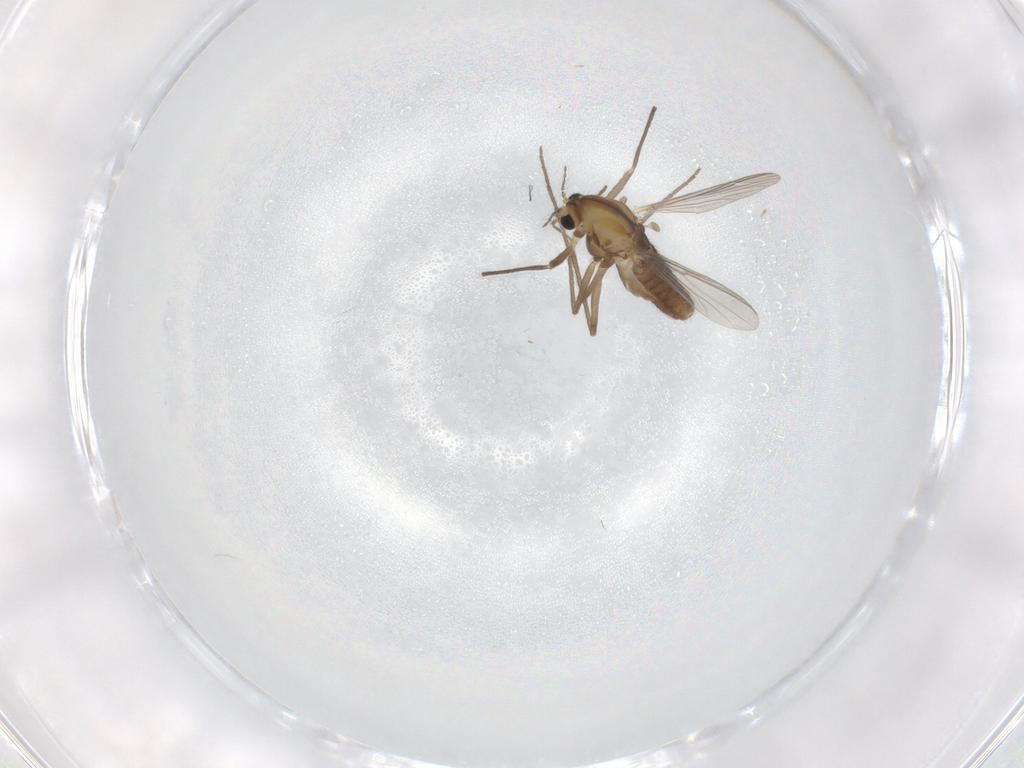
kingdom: Animalia
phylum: Arthropoda
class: Insecta
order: Diptera
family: Chironomidae
